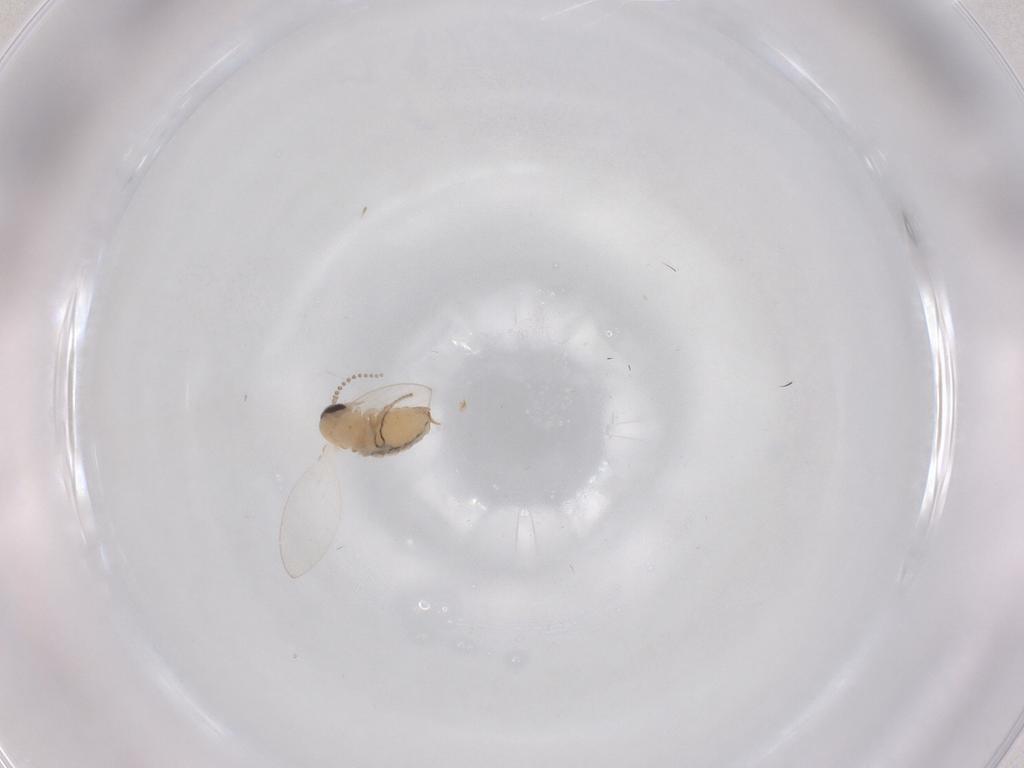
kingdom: Animalia
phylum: Arthropoda
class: Insecta
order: Diptera
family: Psychodidae
